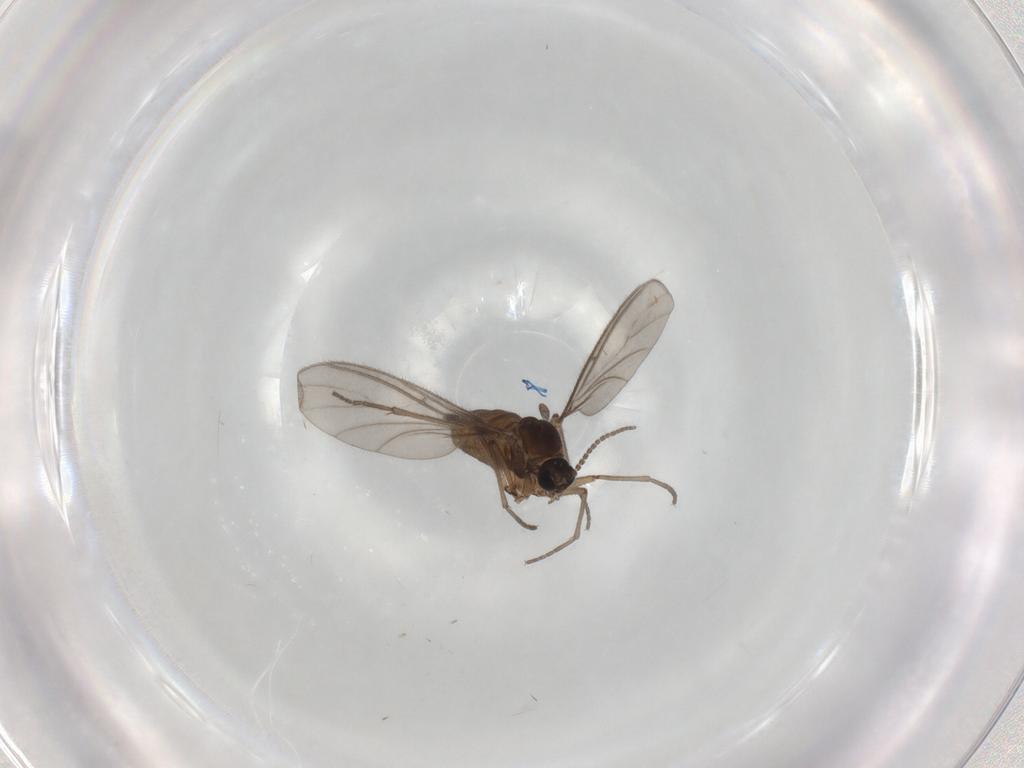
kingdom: Animalia
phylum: Arthropoda
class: Insecta
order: Diptera
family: Sciaridae
